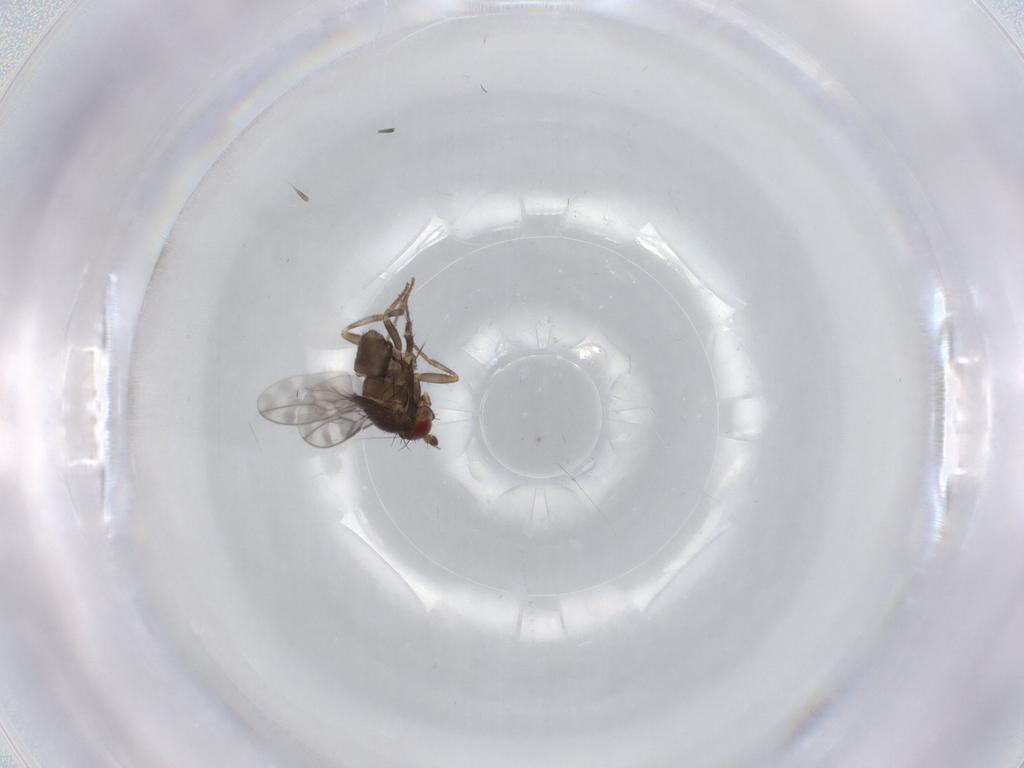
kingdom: Animalia
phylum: Arthropoda
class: Insecta
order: Diptera
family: Sphaeroceridae
